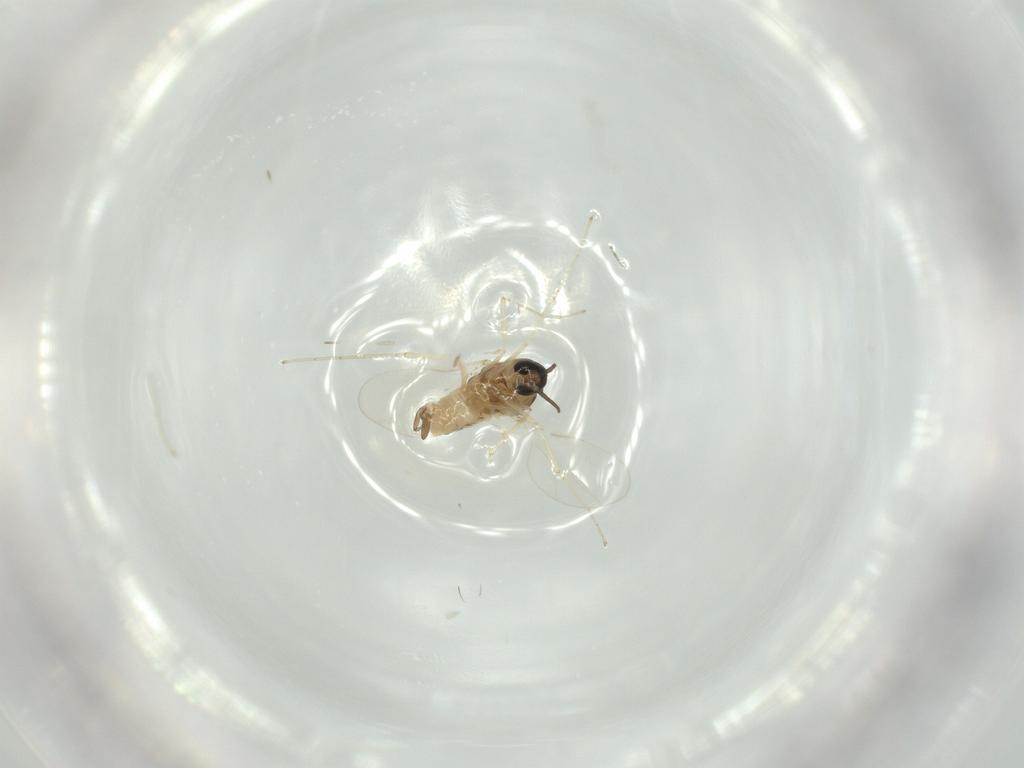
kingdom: Animalia
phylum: Arthropoda
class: Insecta
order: Diptera
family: Cecidomyiidae
